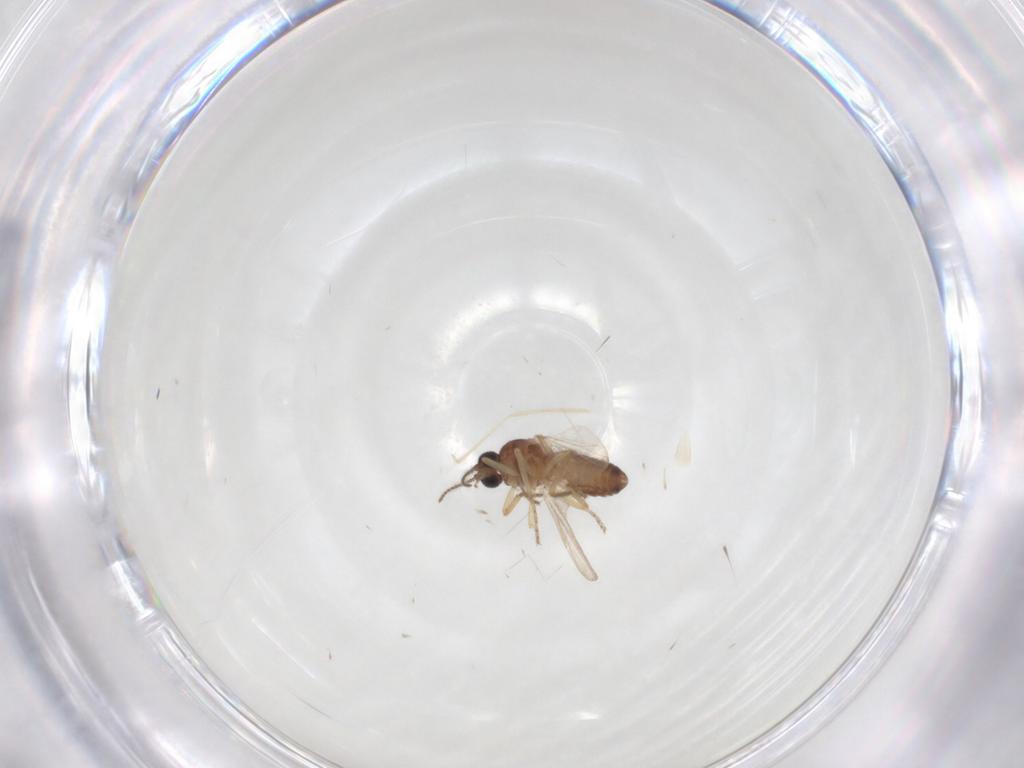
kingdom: Animalia
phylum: Arthropoda
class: Insecta
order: Diptera
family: Ceratopogonidae
